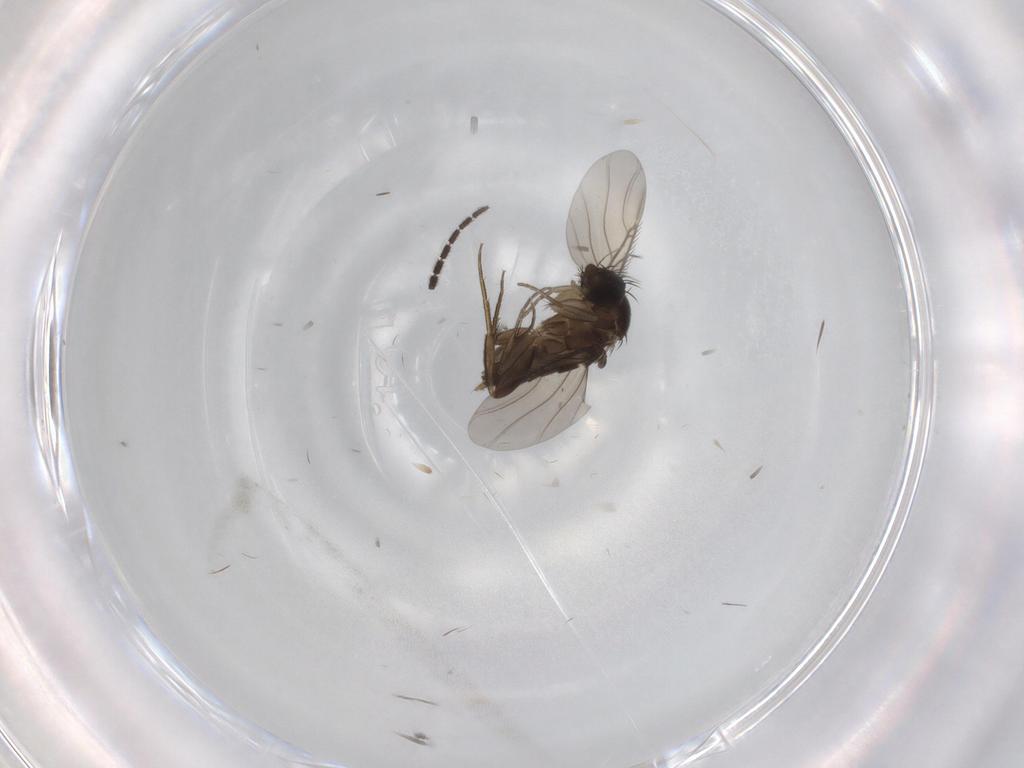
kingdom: Animalia
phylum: Arthropoda
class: Insecta
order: Diptera
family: Phoridae
